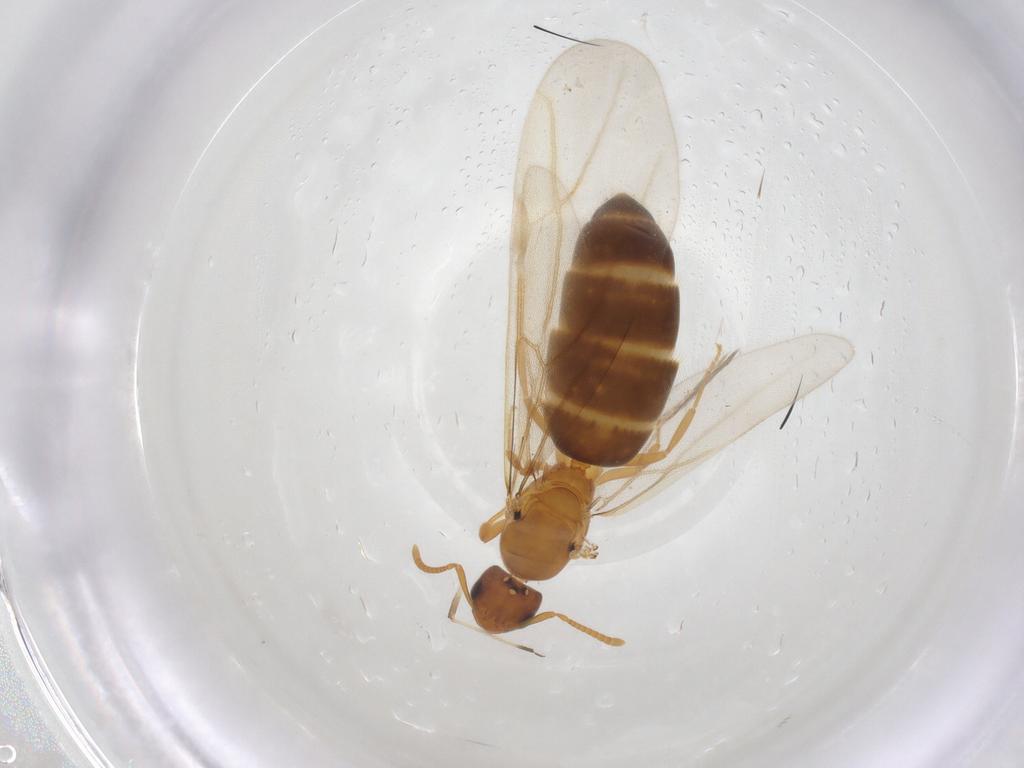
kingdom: Animalia
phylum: Arthropoda
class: Insecta
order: Hymenoptera
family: Formicidae
